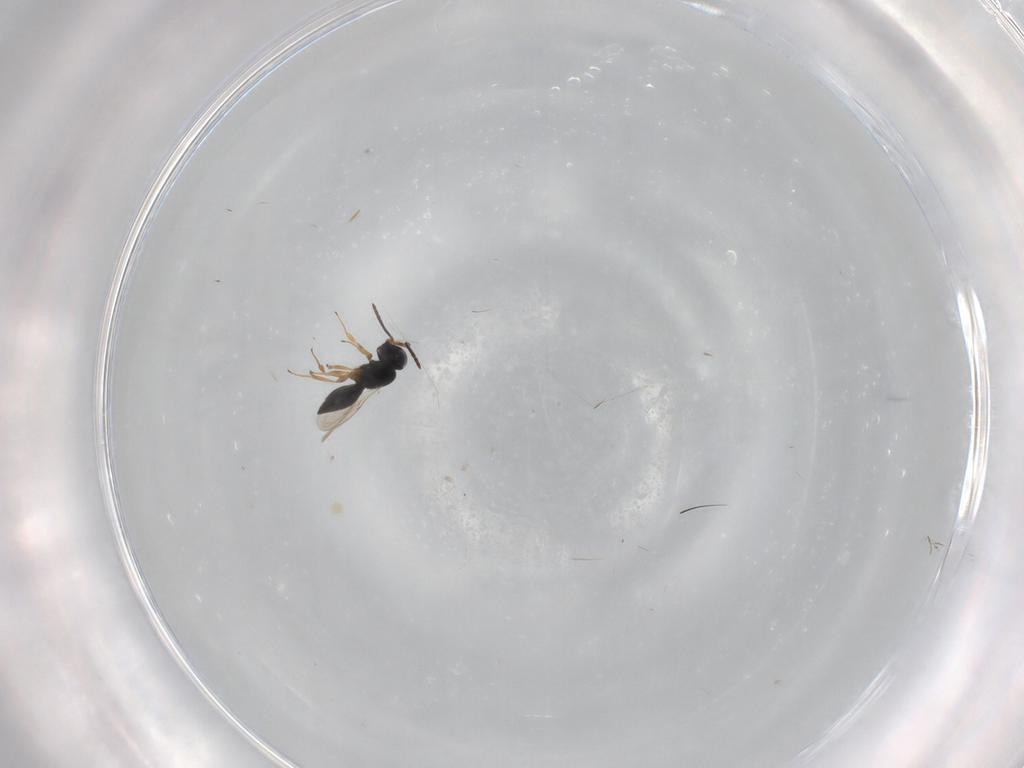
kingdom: Animalia
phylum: Arthropoda
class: Insecta
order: Hymenoptera
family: Scelionidae
